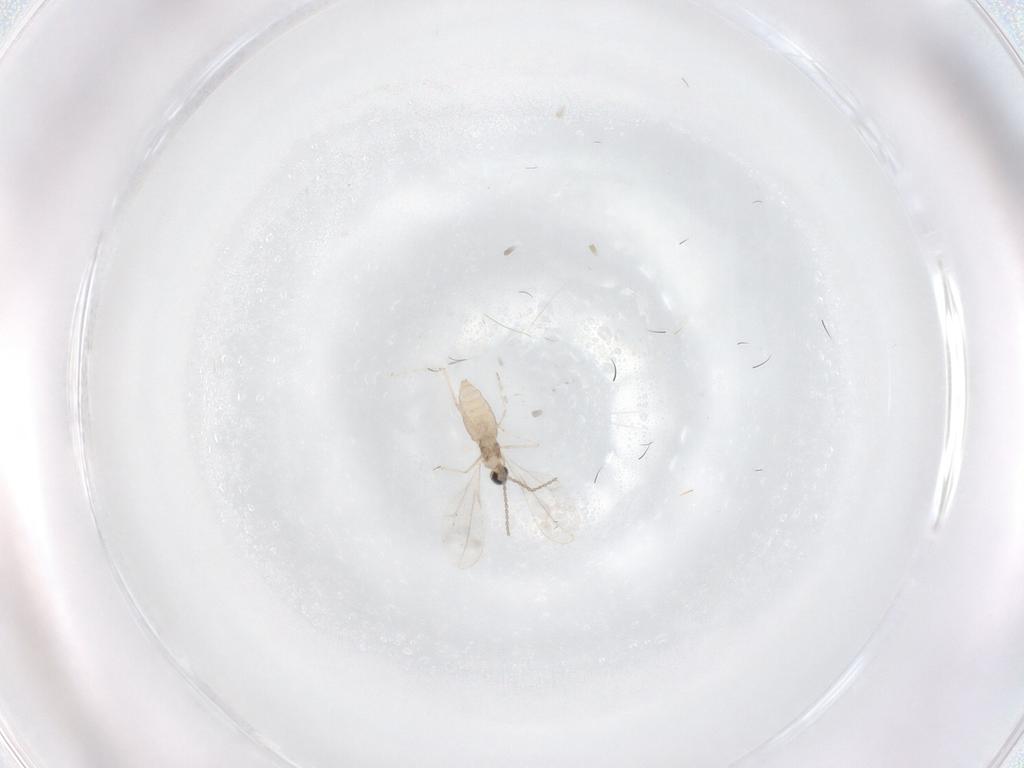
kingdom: Animalia
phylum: Arthropoda
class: Insecta
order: Diptera
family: Cecidomyiidae
